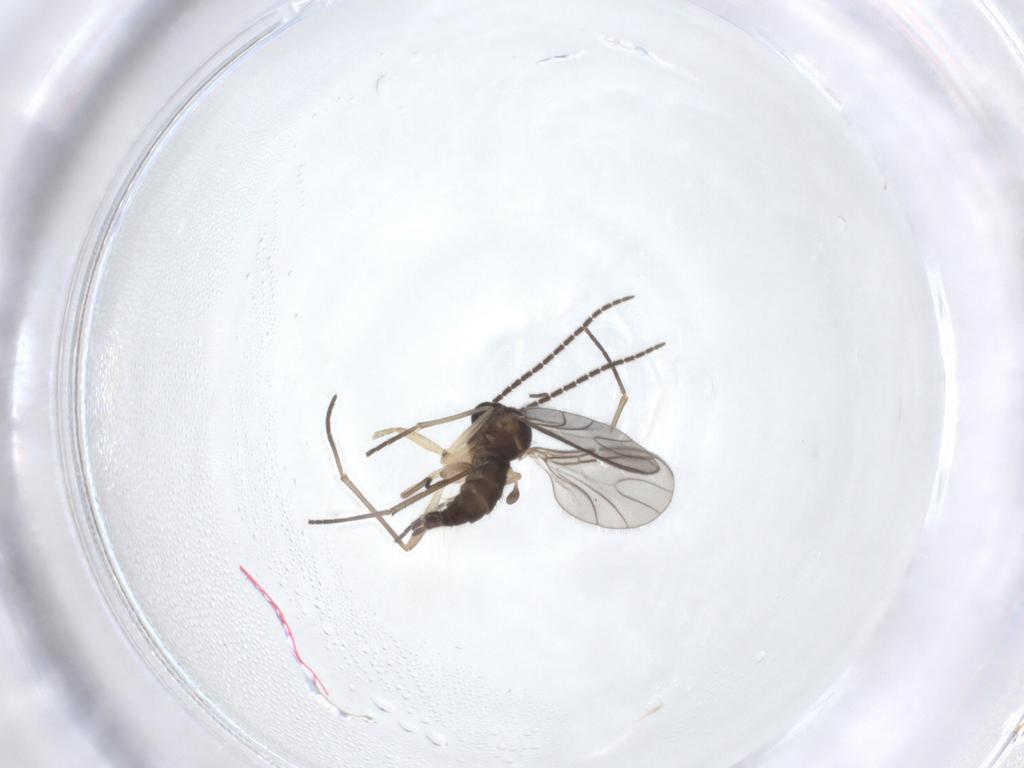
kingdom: Animalia
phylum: Arthropoda
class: Insecta
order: Diptera
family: Sciaridae
